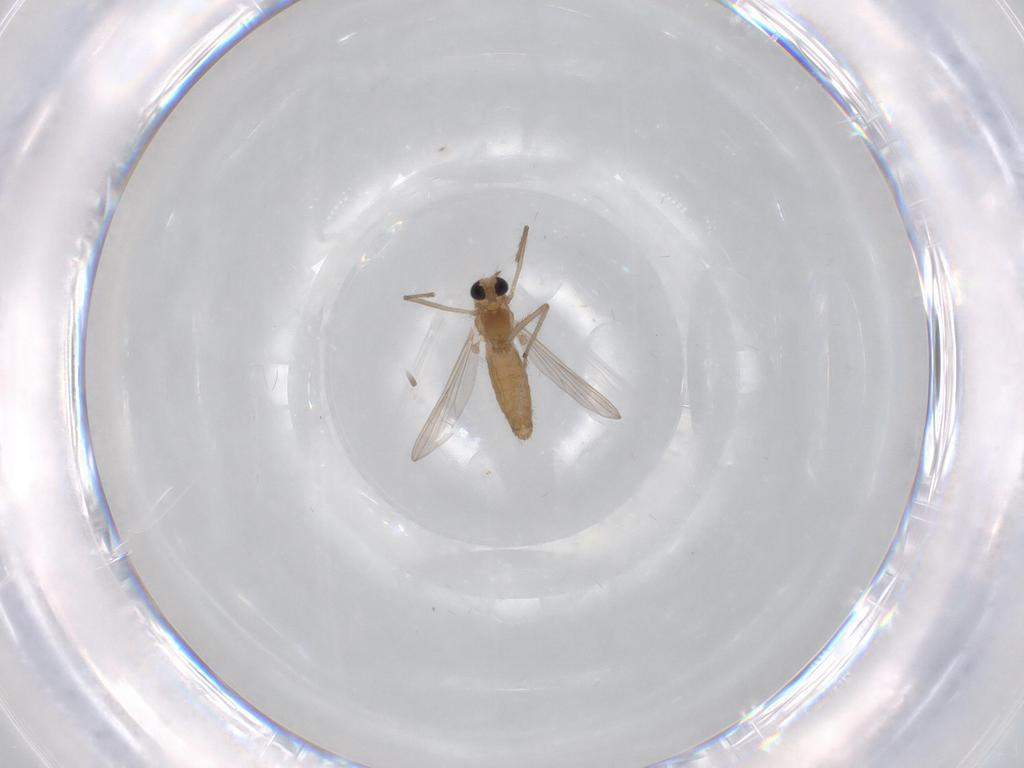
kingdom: Animalia
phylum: Arthropoda
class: Insecta
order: Diptera
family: Chironomidae
